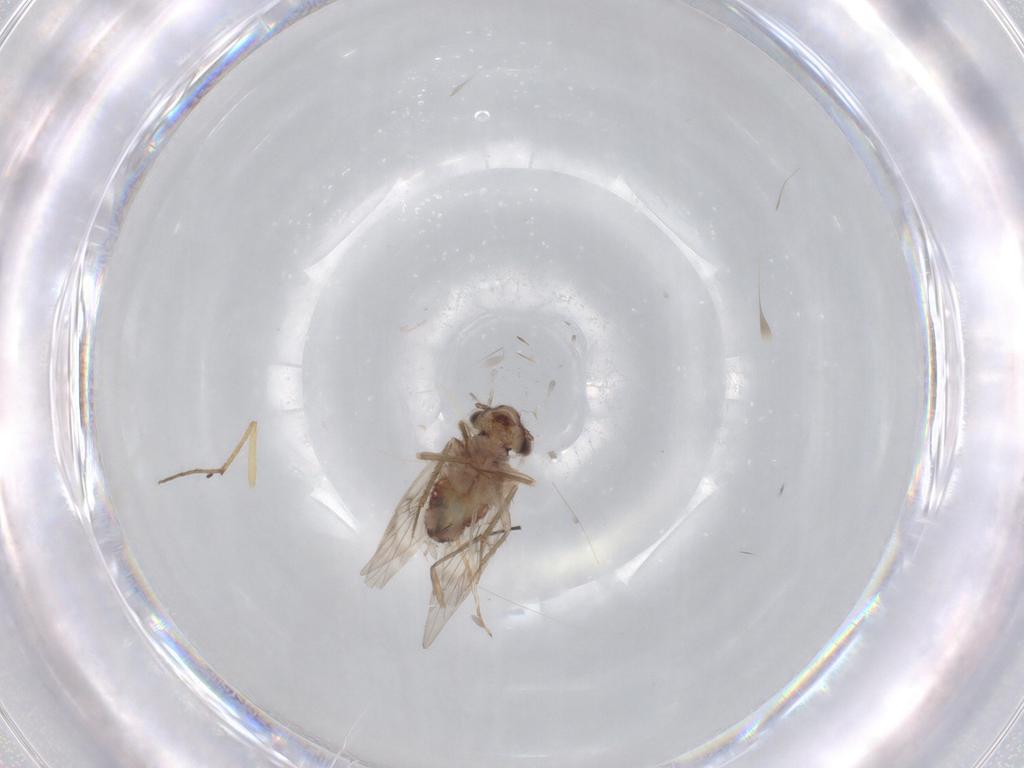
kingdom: Animalia
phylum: Arthropoda
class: Insecta
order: Psocodea
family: Lepidopsocidae
